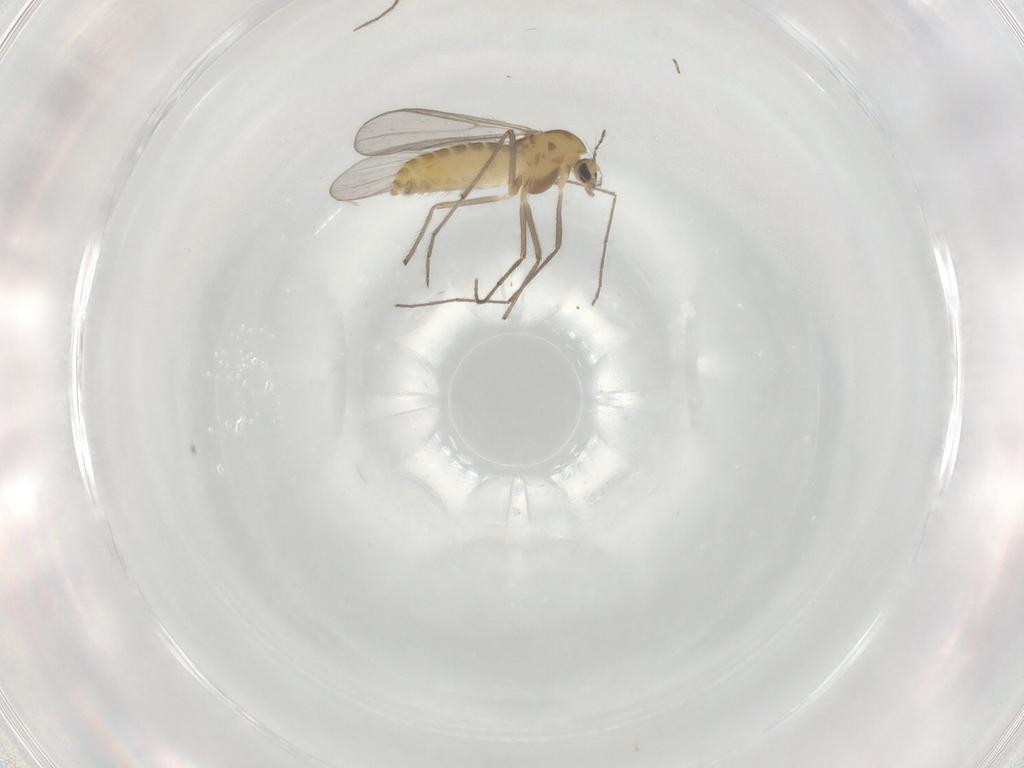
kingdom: Animalia
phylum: Arthropoda
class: Insecta
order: Diptera
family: Chironomidae
